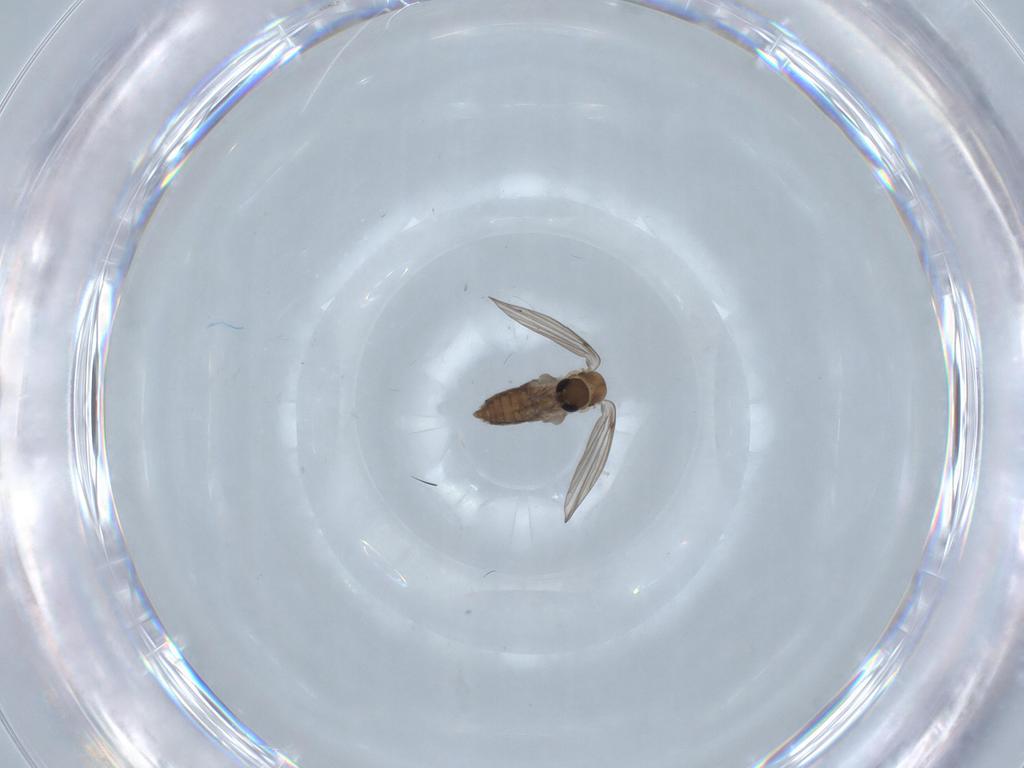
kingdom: Animalia
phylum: Arthropoda
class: Insecta
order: Diptera
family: Psychodidae
